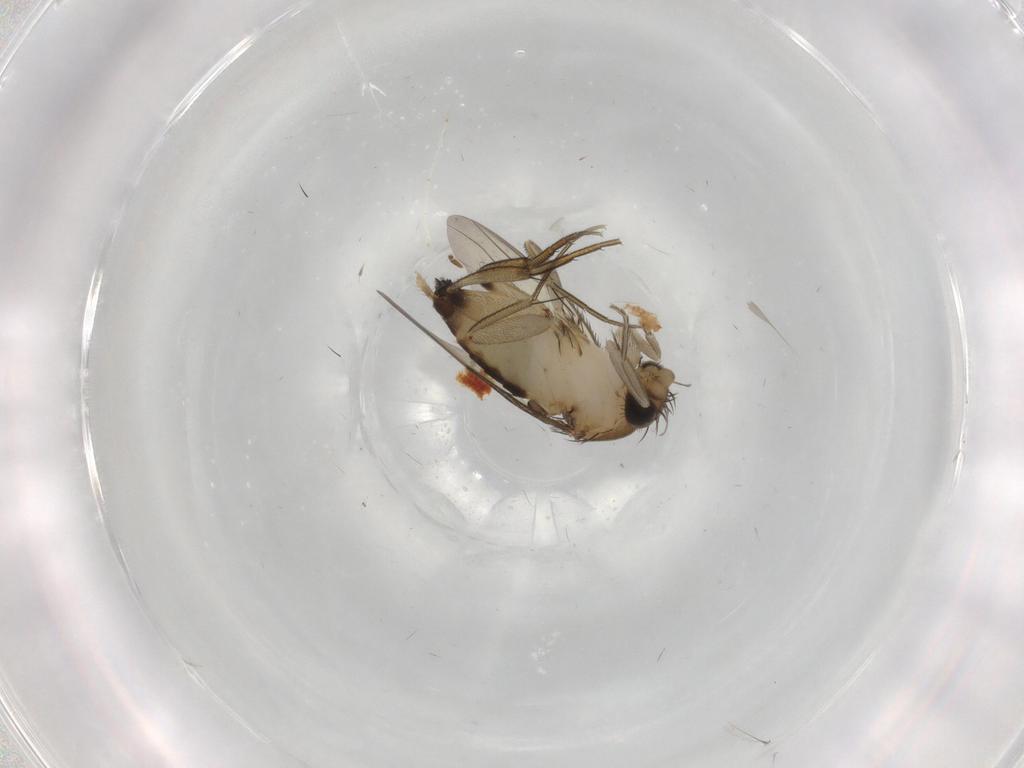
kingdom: Animalia
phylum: Arthropoda
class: Insecta
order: Diptera
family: Phoridae
